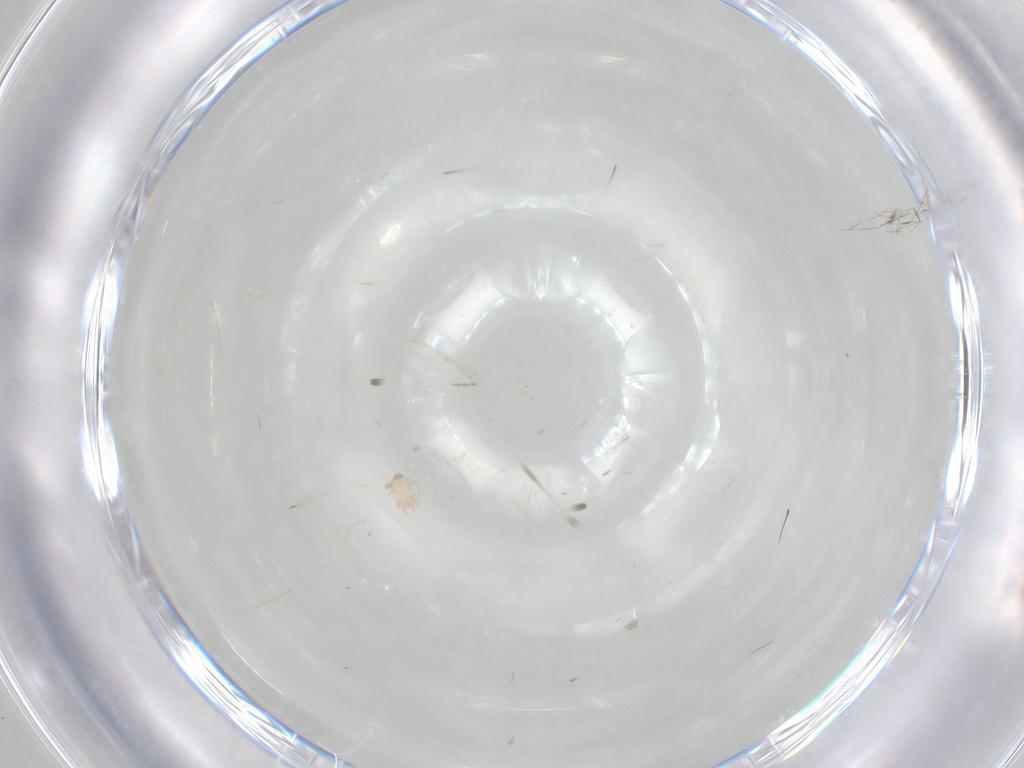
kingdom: Animalia
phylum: Arthropoda
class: Insecta
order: Diptera
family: Cecidomyiidae
